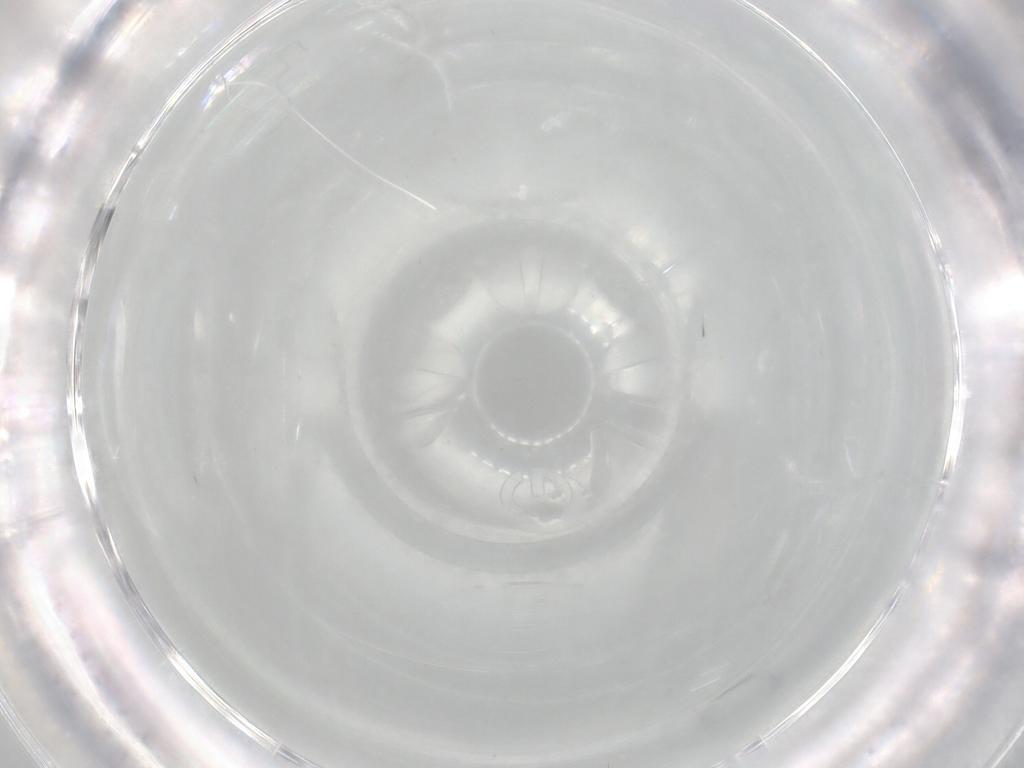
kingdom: Animalia
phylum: Arthropoda
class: Insecta
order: Diptera
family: Cecidomyiidae
